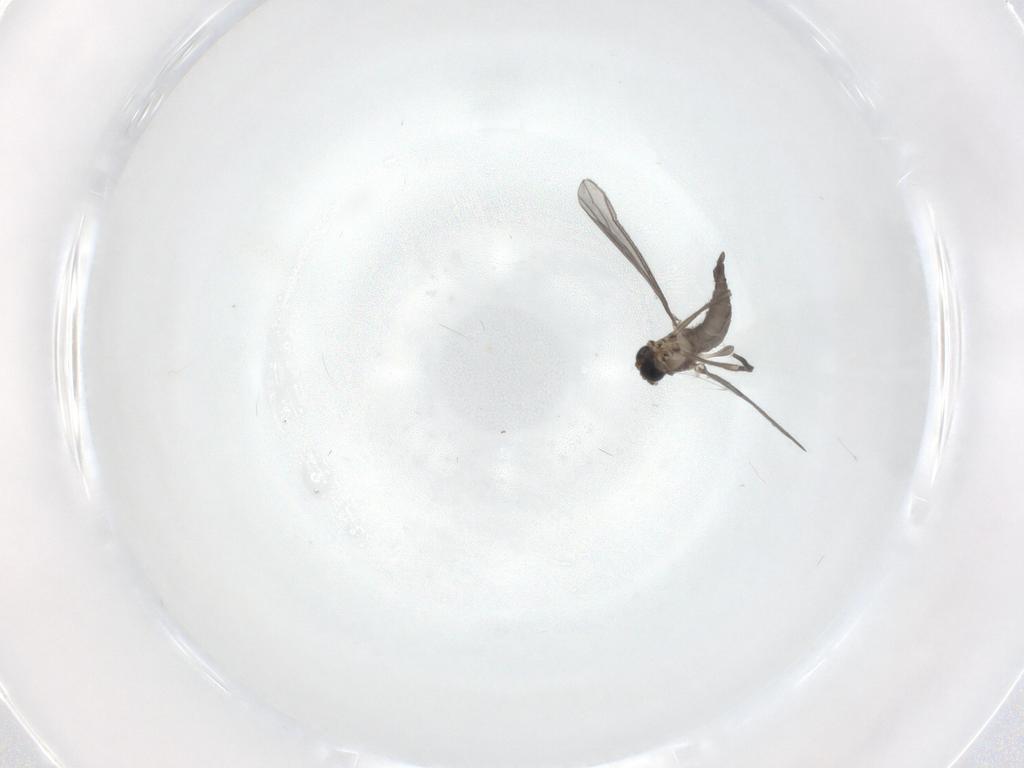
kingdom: Animalia
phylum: Arthropoda
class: Insecta
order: Diptera
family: Sciaridae
